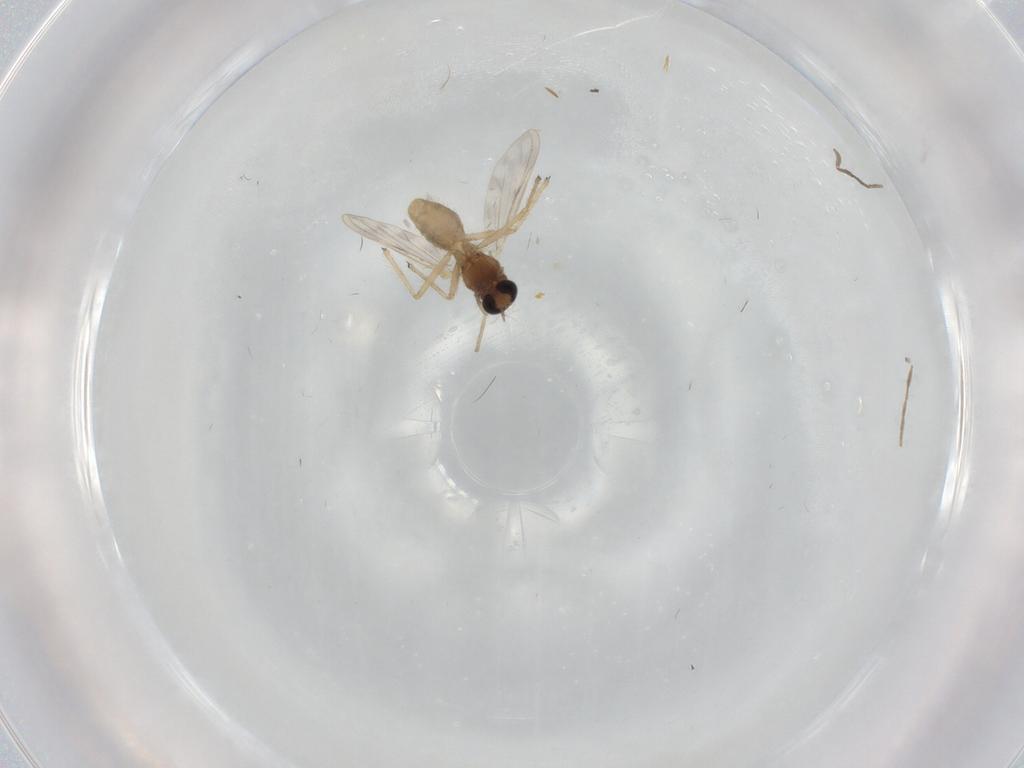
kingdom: Animalia
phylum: Arthropoda
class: Insecta
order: Diptera
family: Chironomidae
